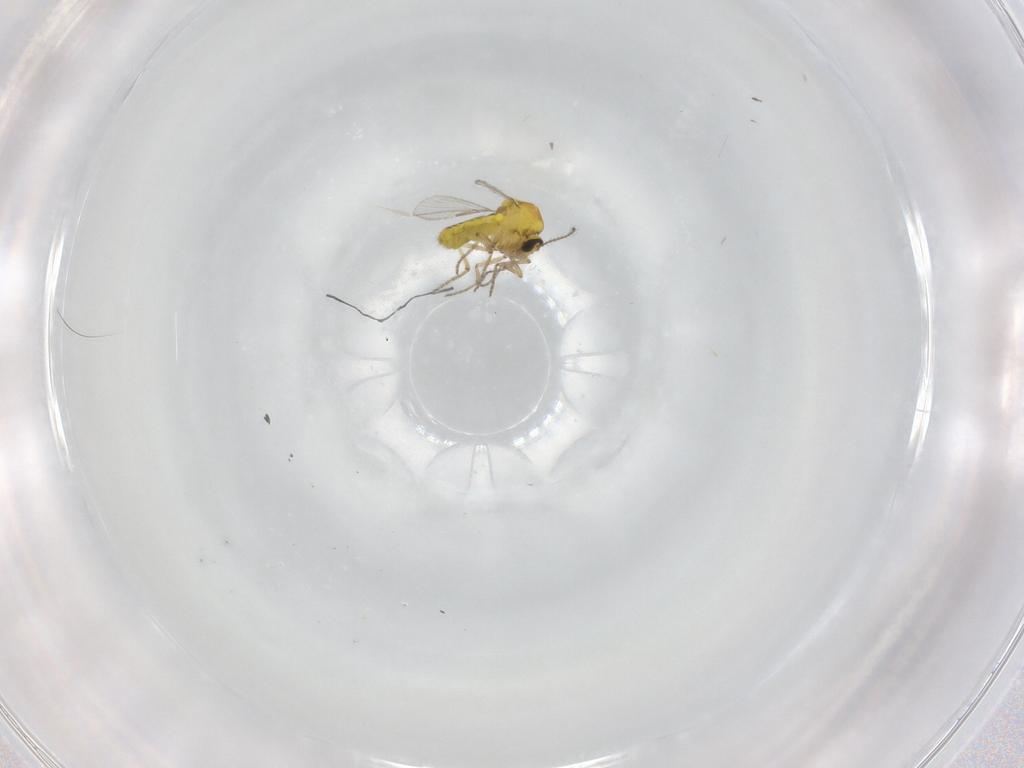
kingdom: Animalia
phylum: Arthropoda
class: Insecta
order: Diptera
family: Ceratopogonidae
